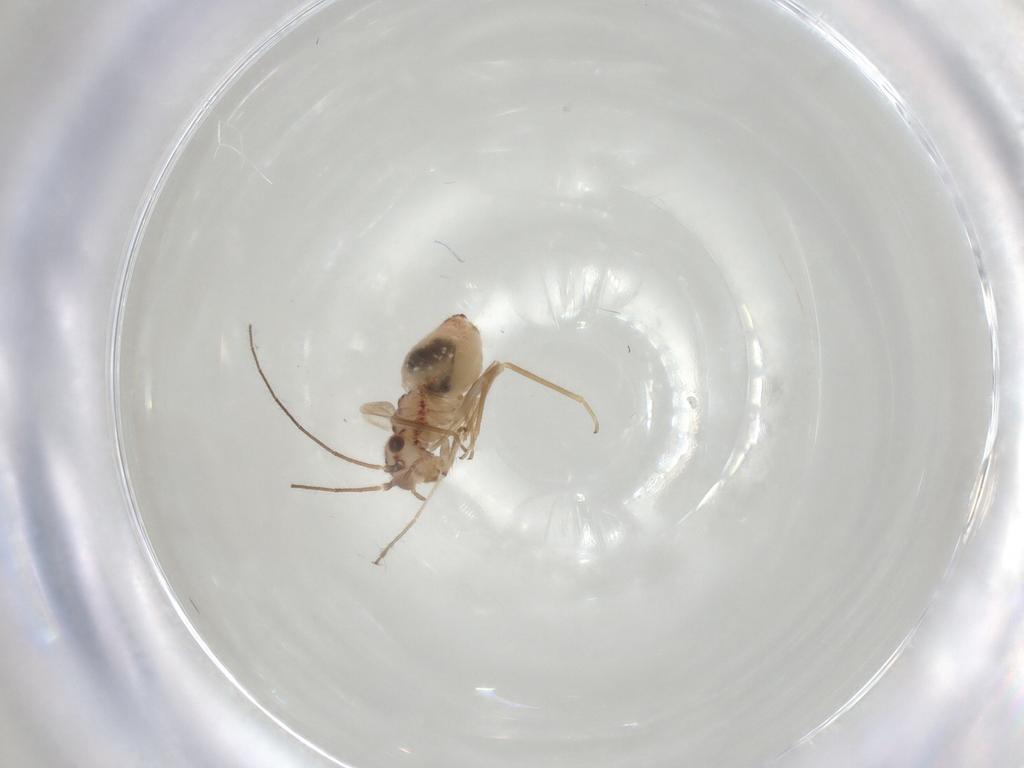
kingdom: Animalia
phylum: Arthropoda
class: Insecta
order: Psocodea
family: Caeciliusidae
